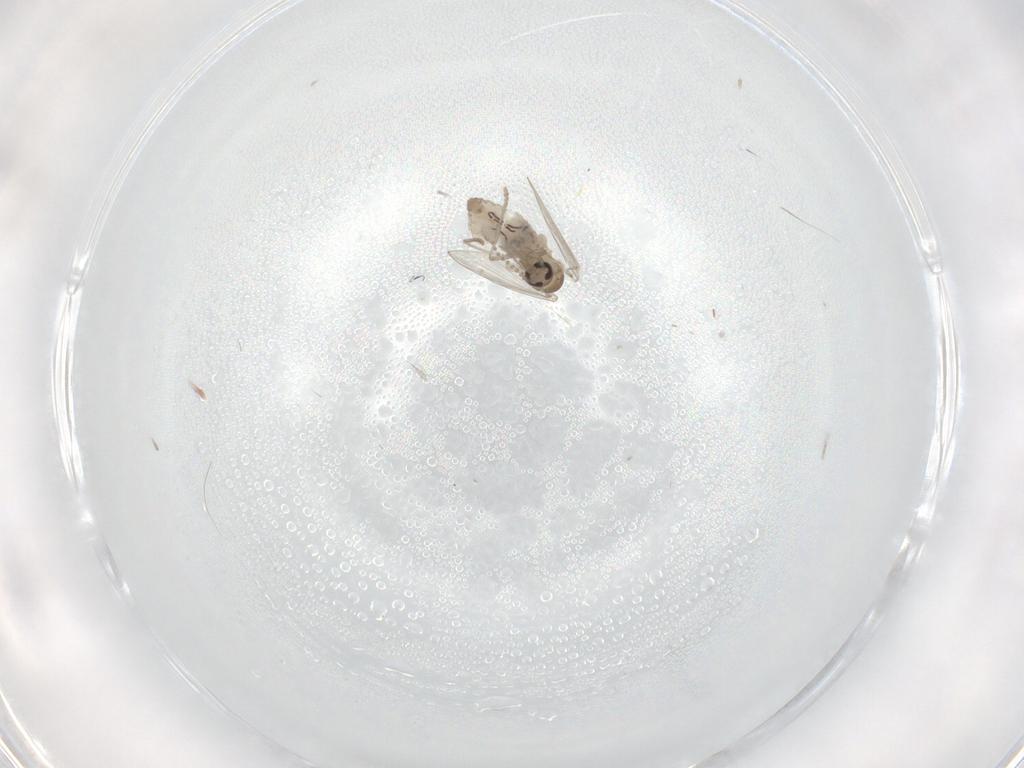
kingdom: Animalia
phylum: Arthropoda
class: Insecta
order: Diptera
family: Psychodidae
